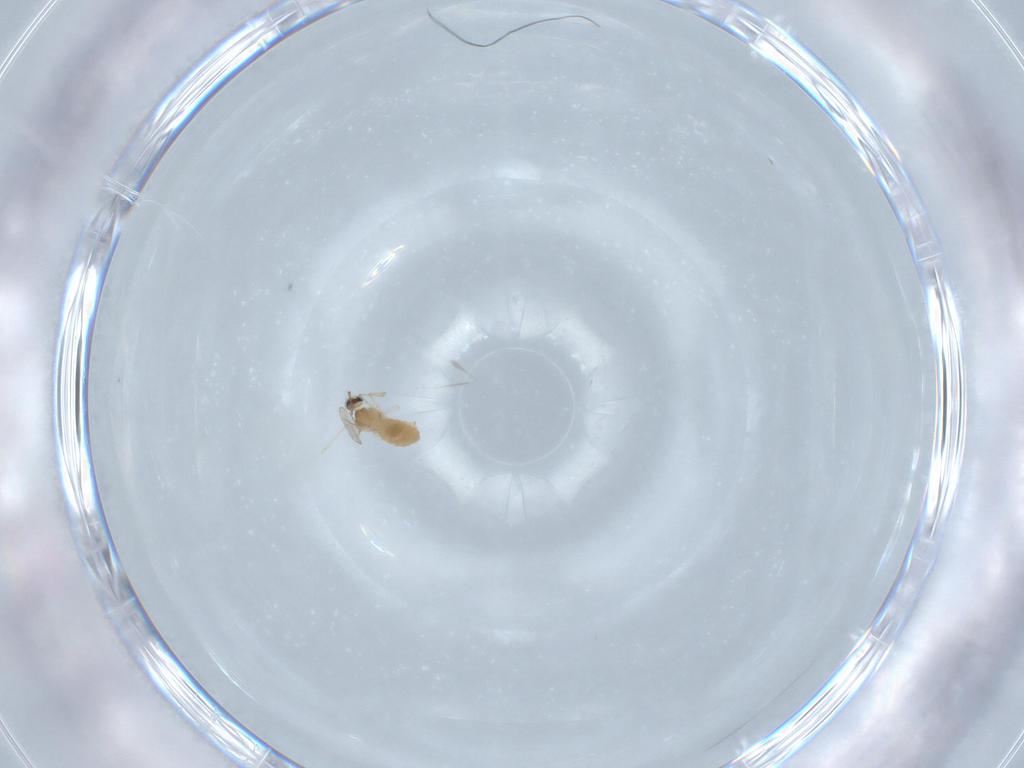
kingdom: Animalia
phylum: Arthropoda
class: Insecta
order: Diptera
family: Cecidomyiidae
